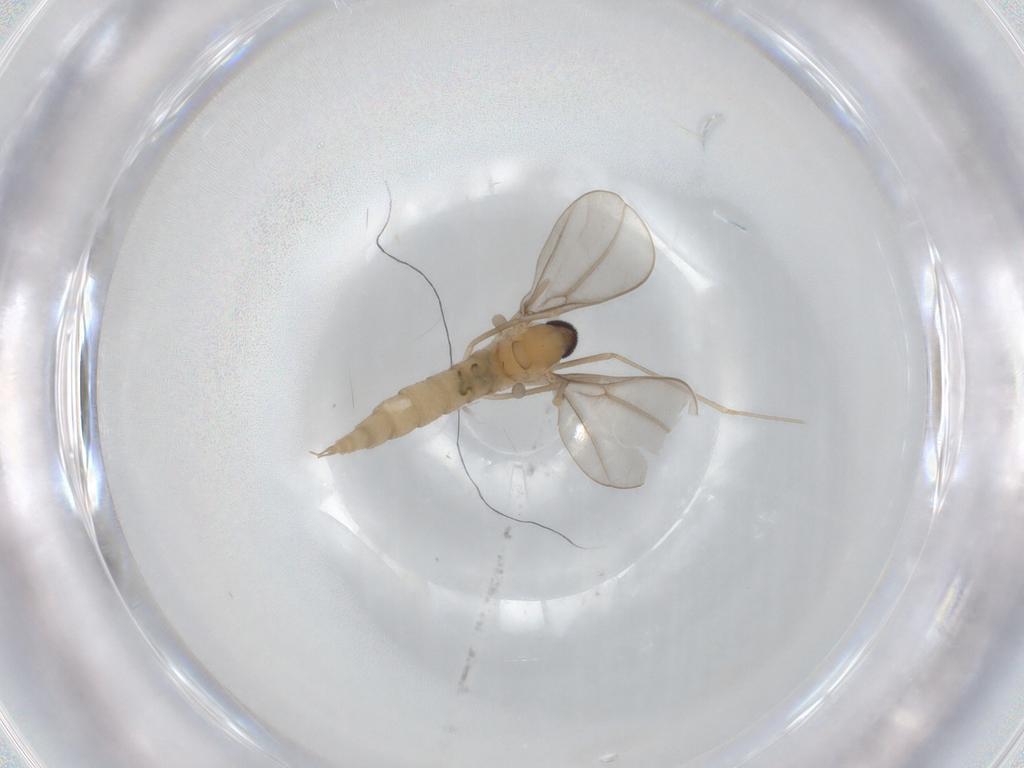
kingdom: Animalia
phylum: Arthropoda
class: Insecta
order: Diptera
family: Cecidomyiidae
